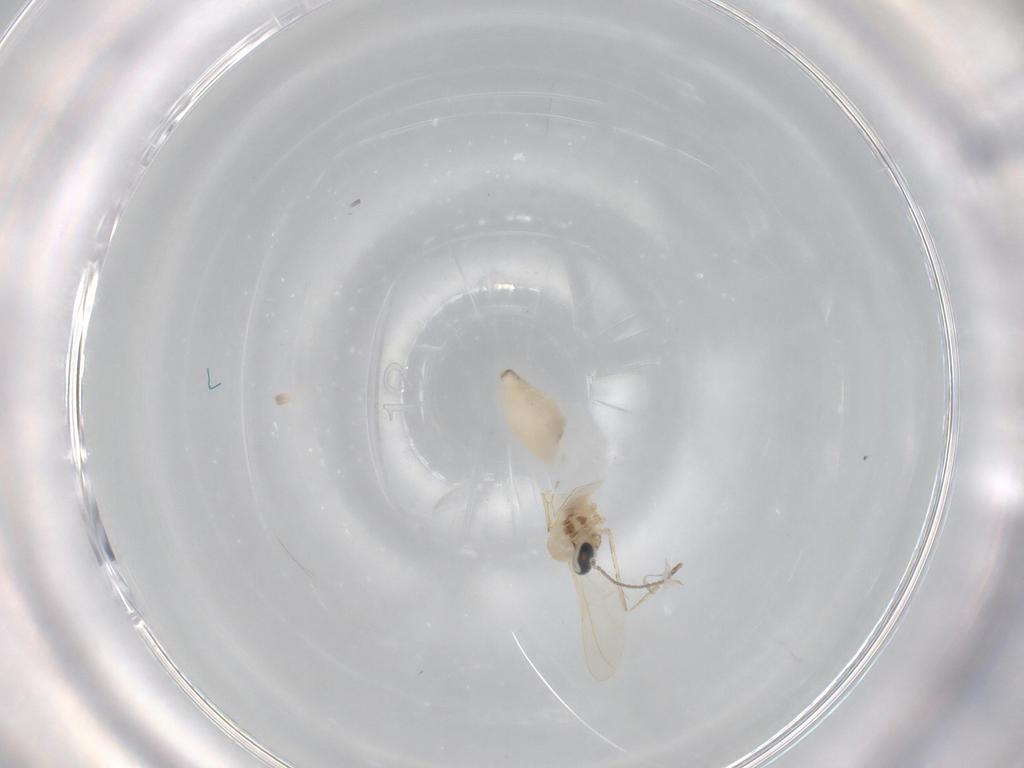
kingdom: Animalia
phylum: Arthropoda
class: Insecta
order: Diptera
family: Cecidomyiidae
